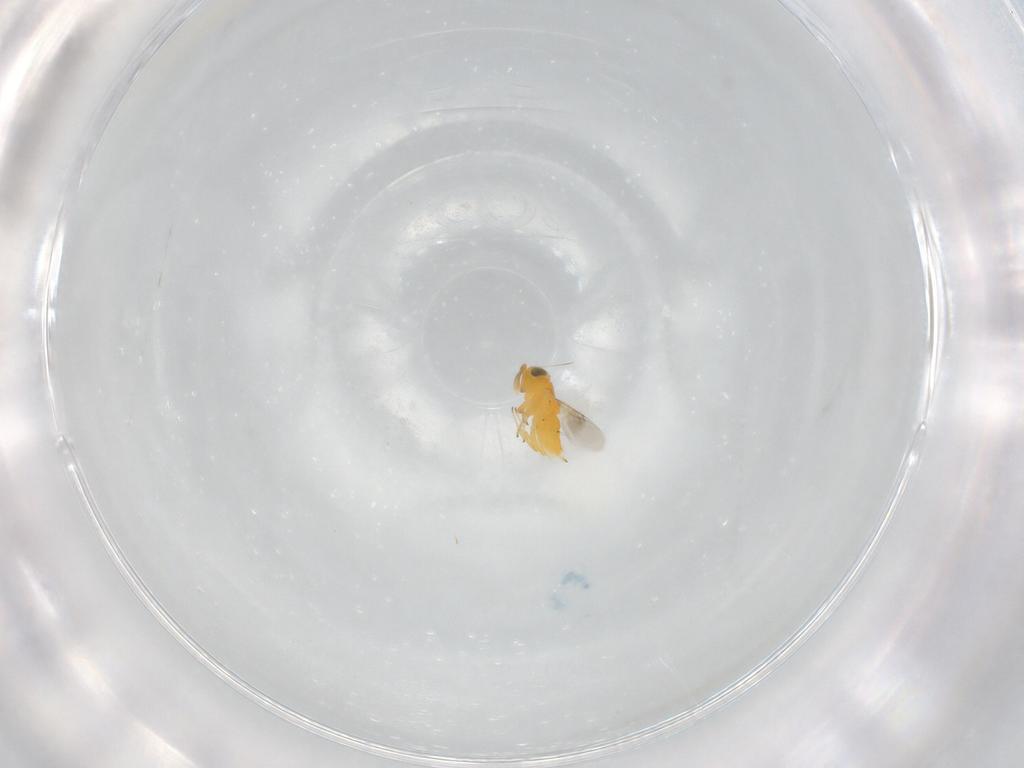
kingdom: Animalia
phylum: Arthropoda
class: Insecta
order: Hymenoptera
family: Encyrtidae
